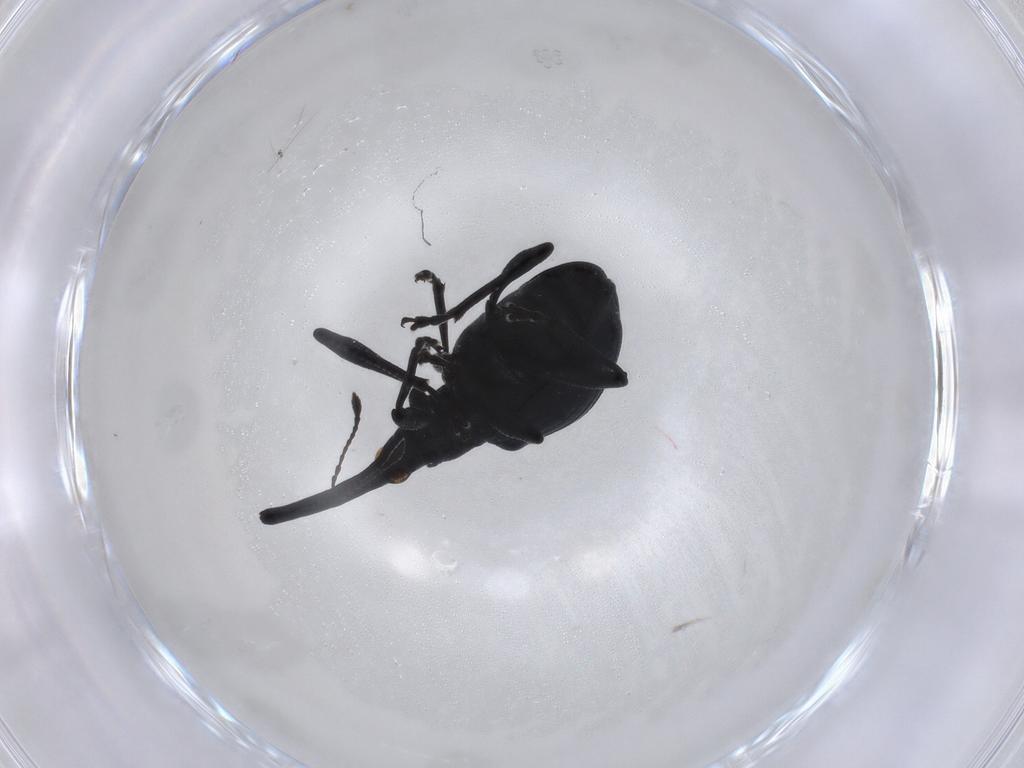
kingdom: Animalia
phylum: Arthropoda
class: Insecta
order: Coleoptera
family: Brentidae
